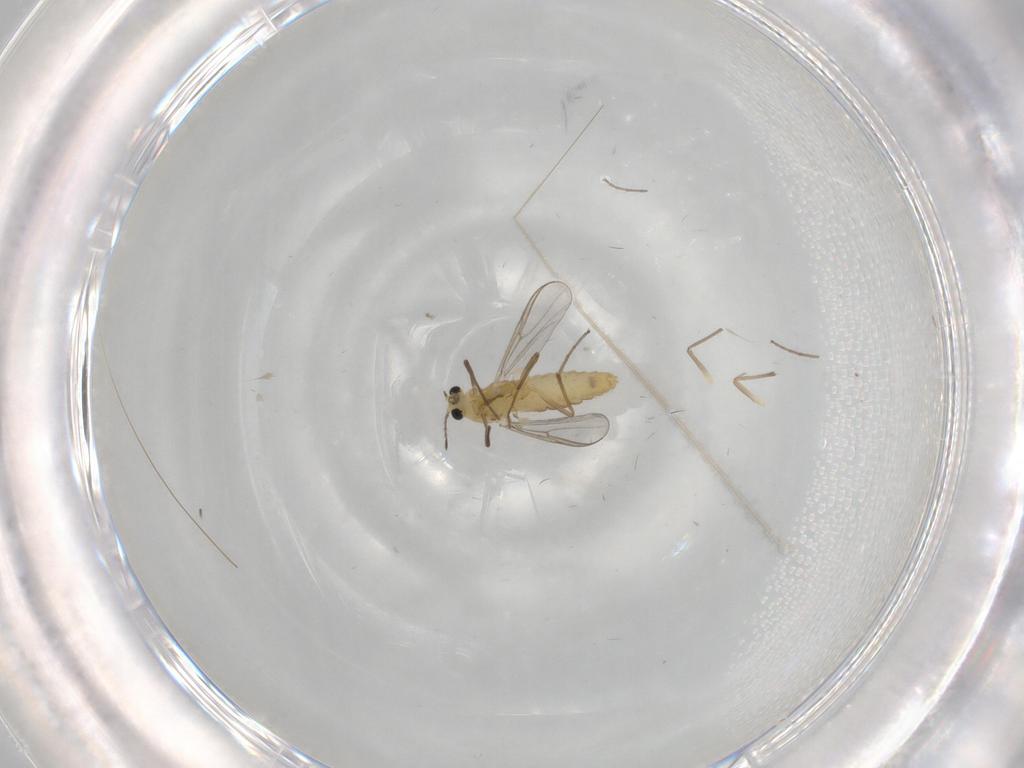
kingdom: Animalia
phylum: Arthropoda
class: Insecta
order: Diptera
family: Chironomidae
